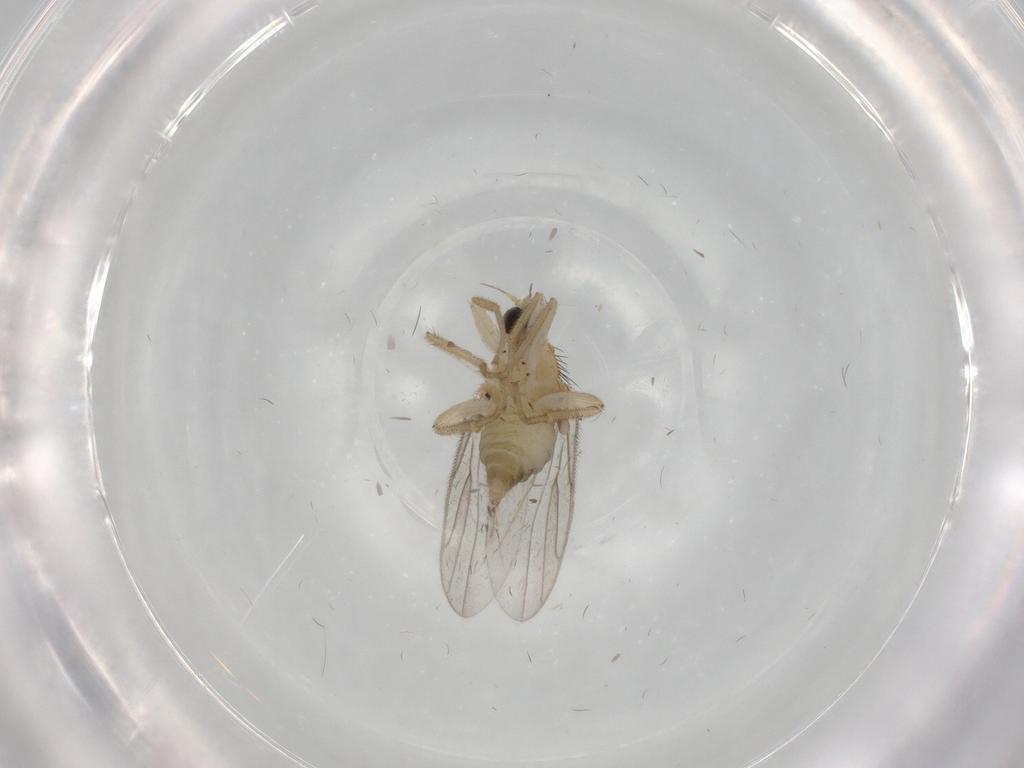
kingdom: Animalia
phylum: Arthropoda
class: Insecta
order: Diptera
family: Hybotidae
